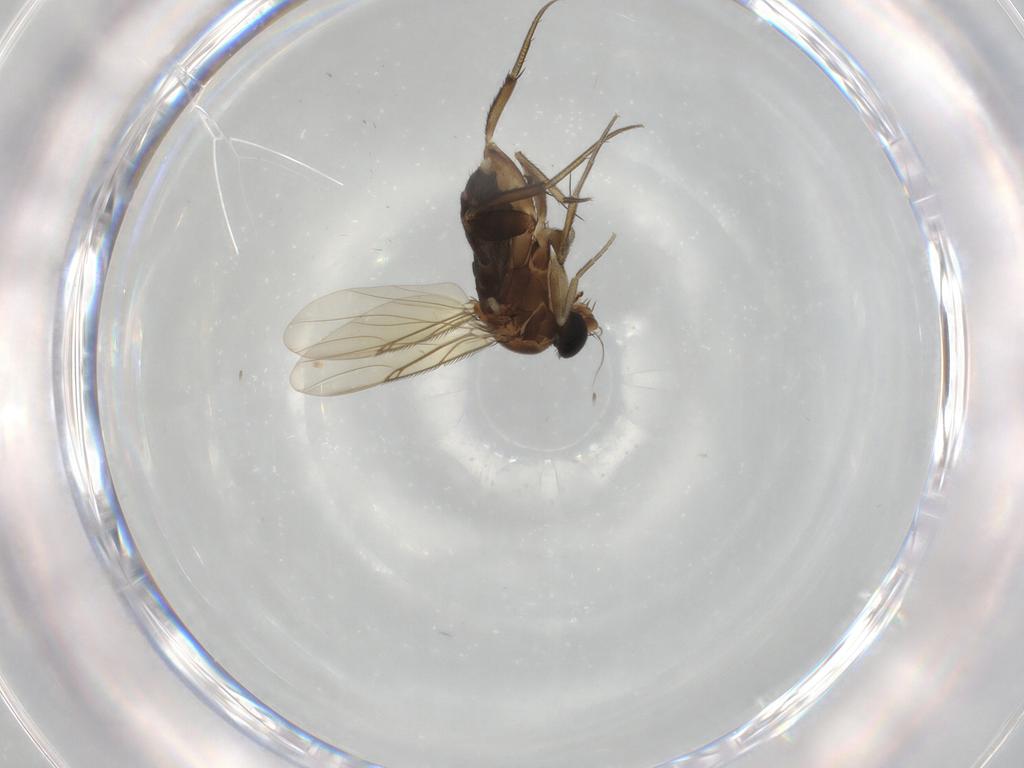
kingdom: Animalia
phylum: Arthropoda
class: Insecta
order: Diptera
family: Phoridae
